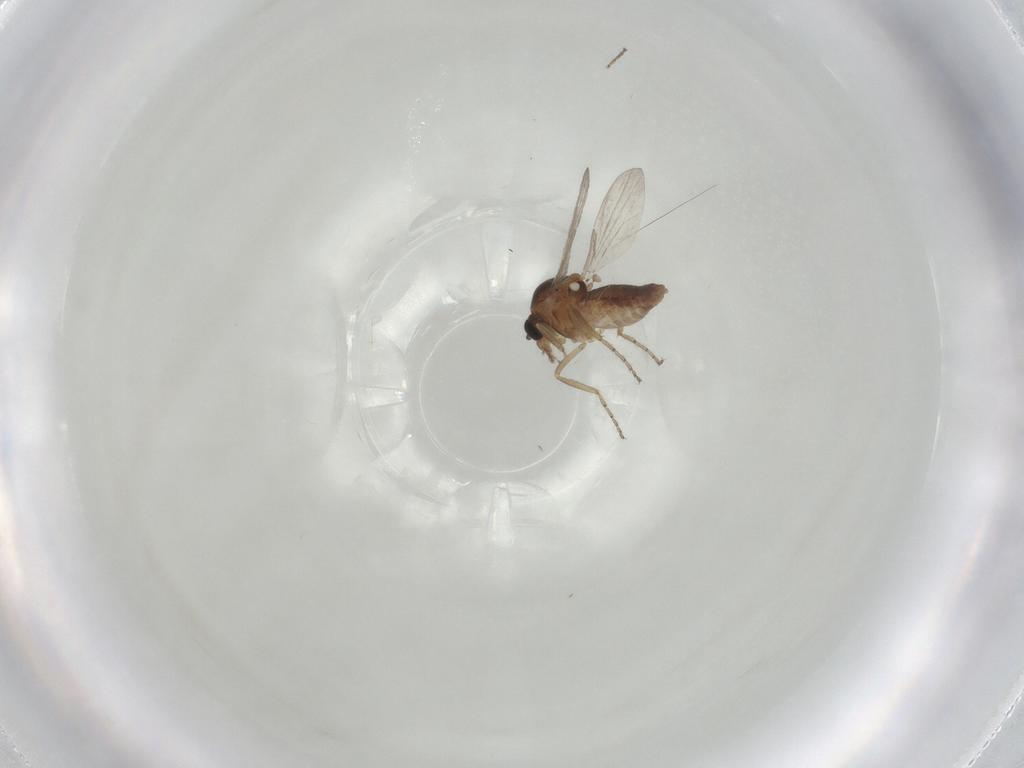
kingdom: Animalia
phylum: Arthropoda
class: Insecta
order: Diptera
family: Ceratopogonidae
